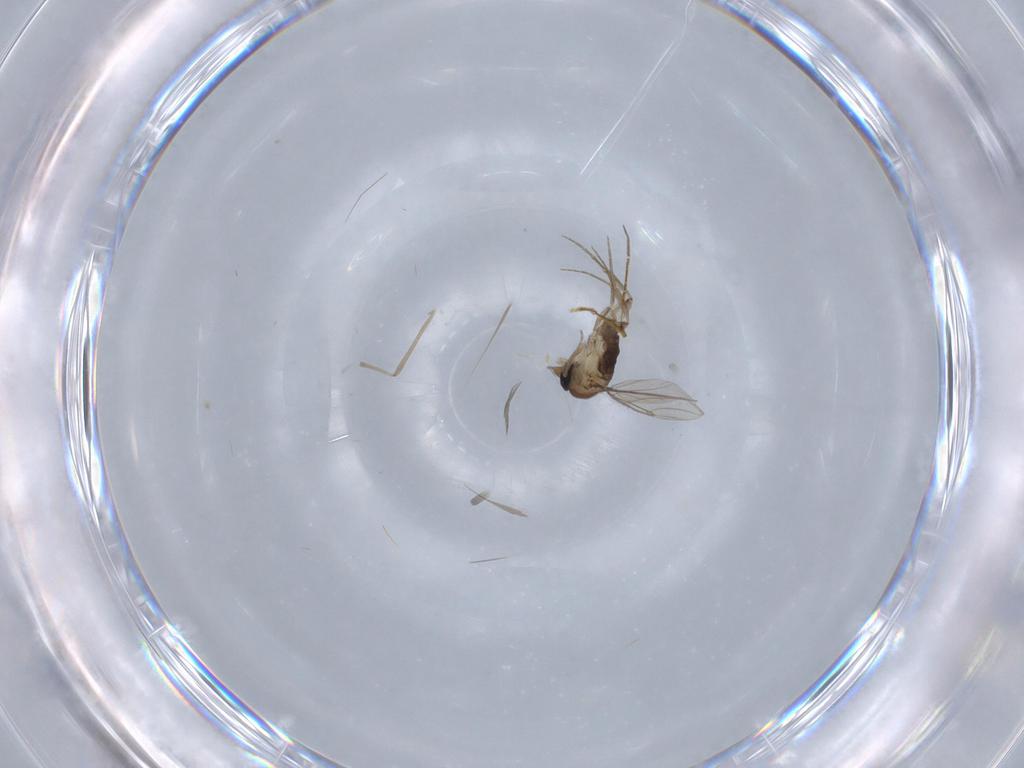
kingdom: Animalia
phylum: Arthropoda
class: Insecta
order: Diptera
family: Chironomidae
